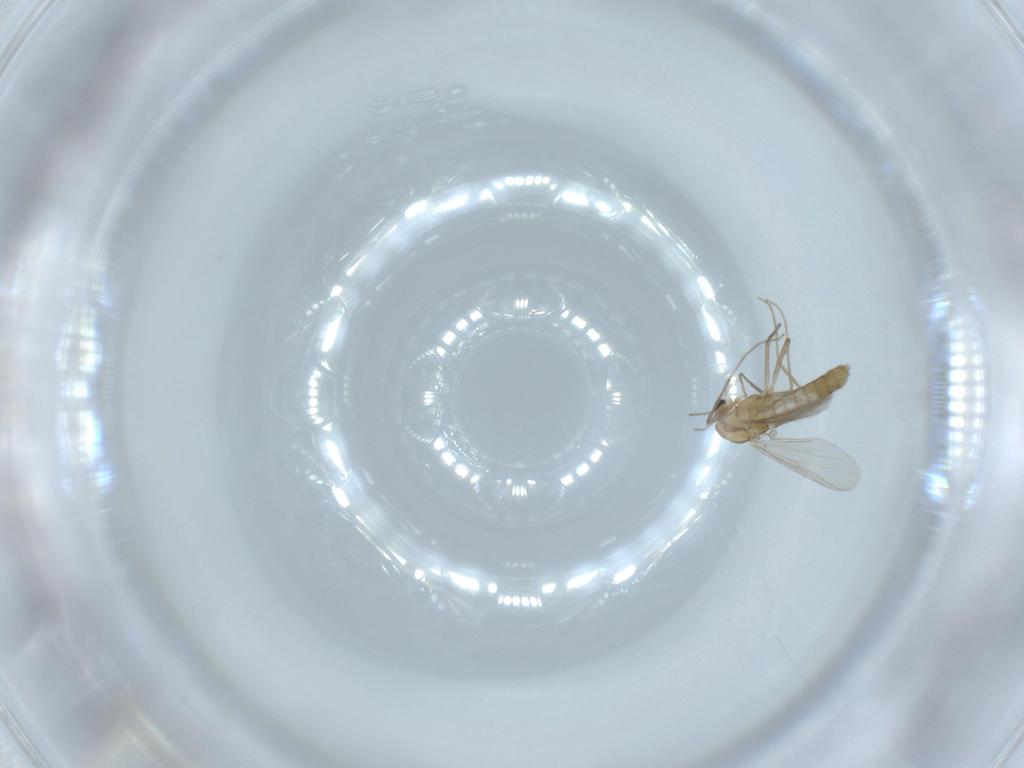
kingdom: Animalia
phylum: Arthropoda
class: Insecta
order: Diptera
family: Chironomidae
